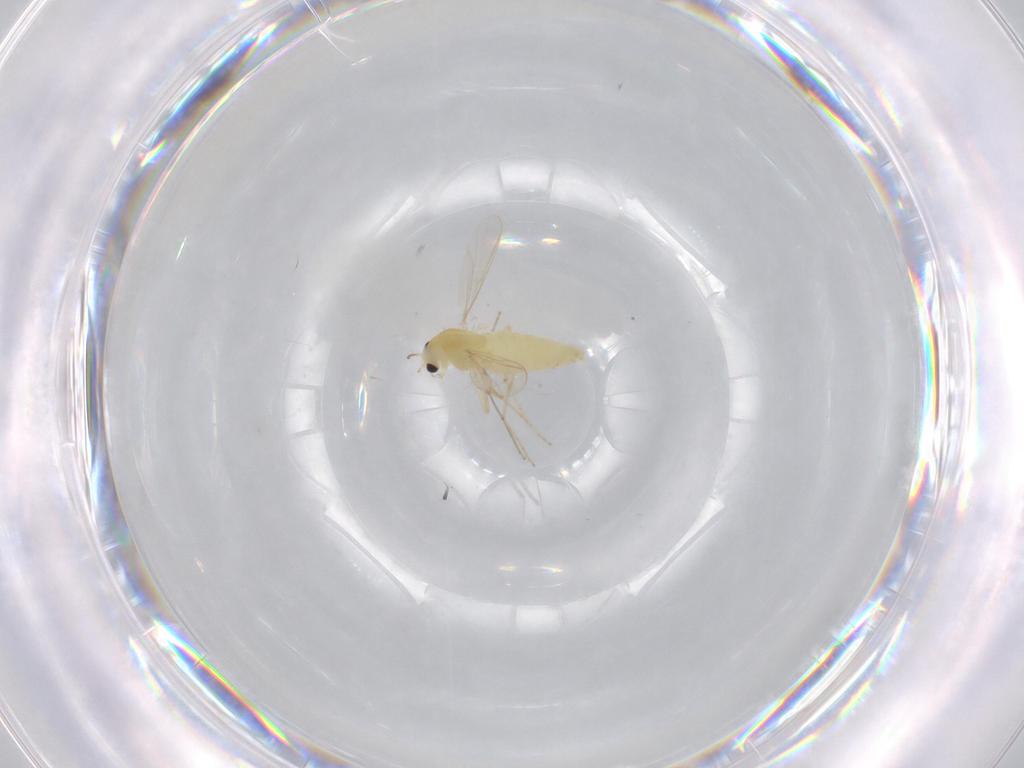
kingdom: Animalia
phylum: Arthropoda
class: Insecta
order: Diptera
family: Chironomidae
